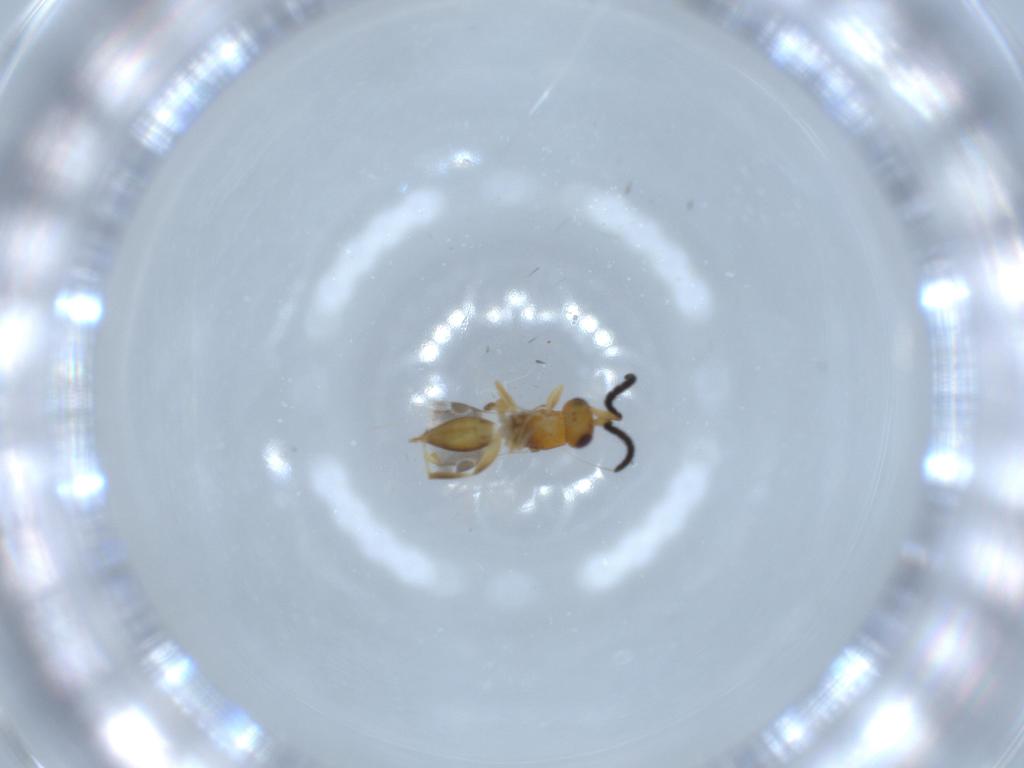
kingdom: Animalia
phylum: Arthropoda
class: Insecta
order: Hymenoptera
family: Megaspilidae
